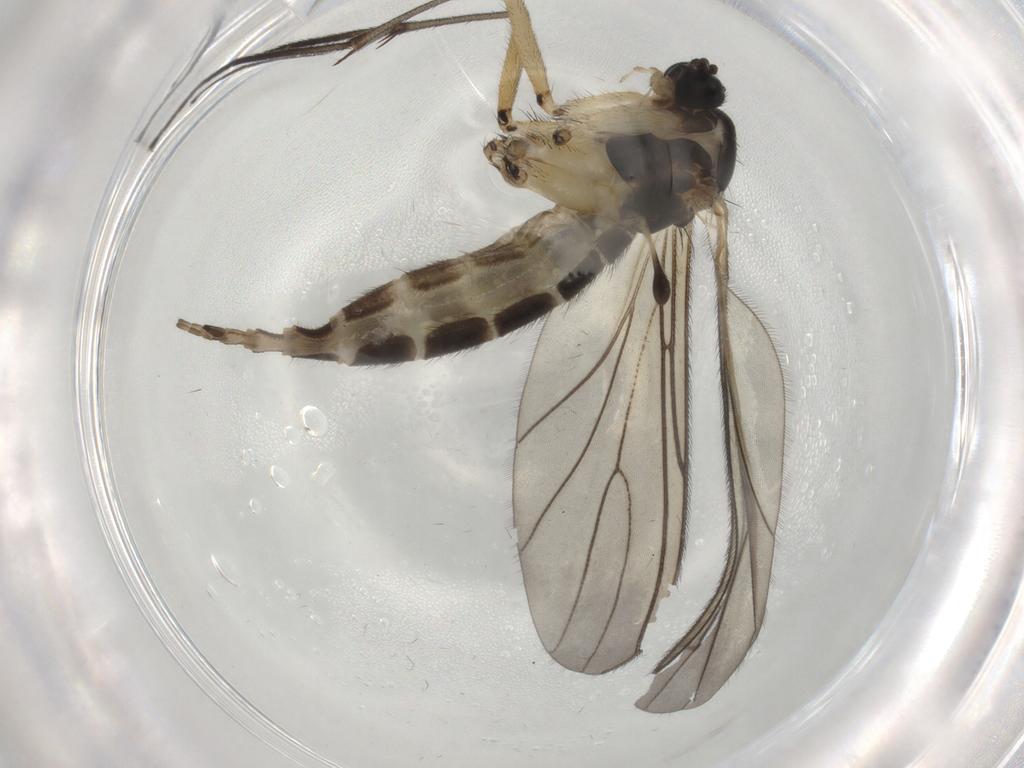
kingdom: Animalia
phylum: Arthropoda
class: Insecta
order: Diptera
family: Sciaridae
